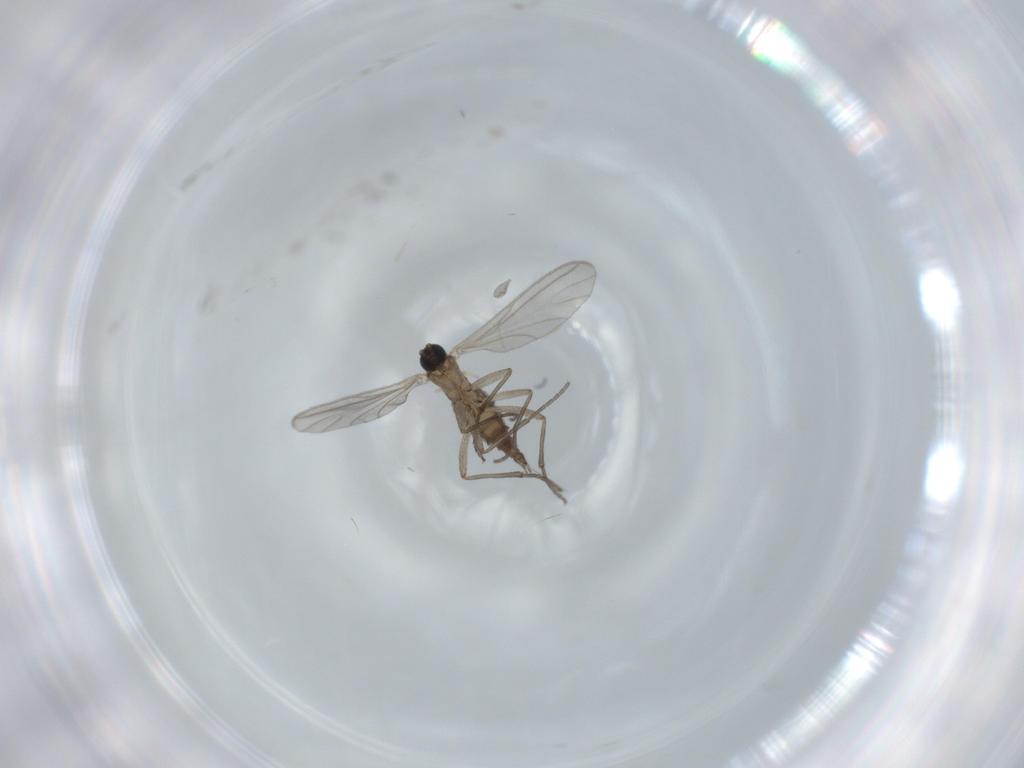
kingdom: Animalia
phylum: Arthropoda
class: Insecta
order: Diptera
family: Sciaridae
